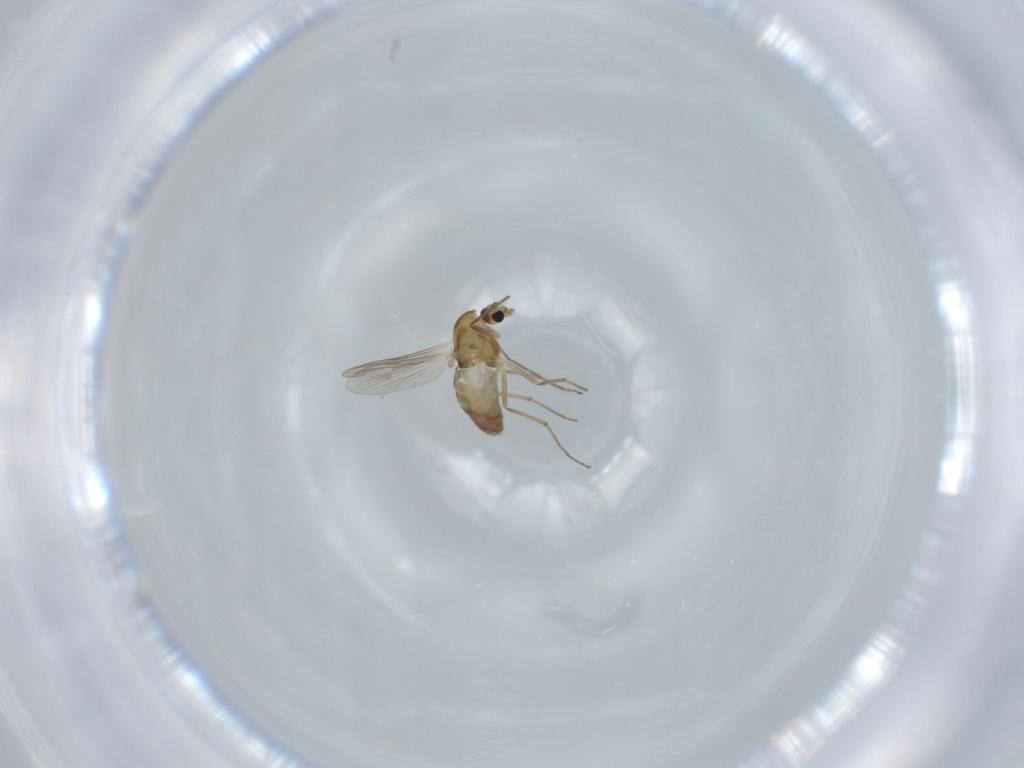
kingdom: Animalia
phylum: Arthropoda
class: Insecta
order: Diptera
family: Chironomidae
